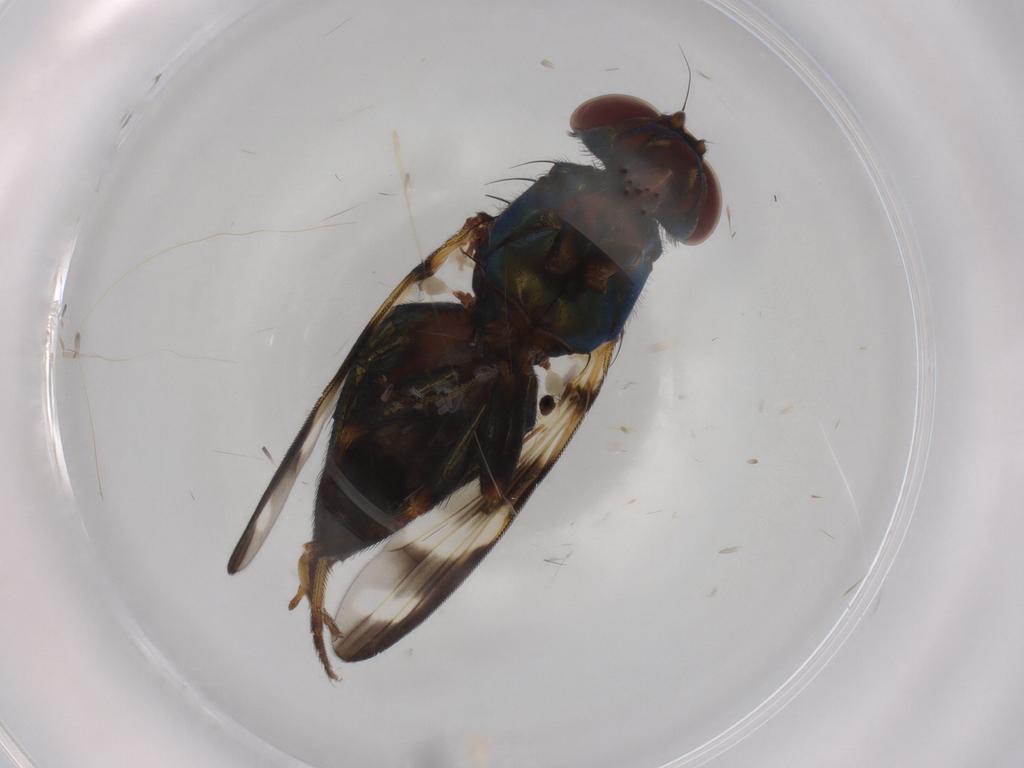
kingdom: Animalia
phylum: Arthropoda
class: Insecta
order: Diptera
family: Ulidiidae
